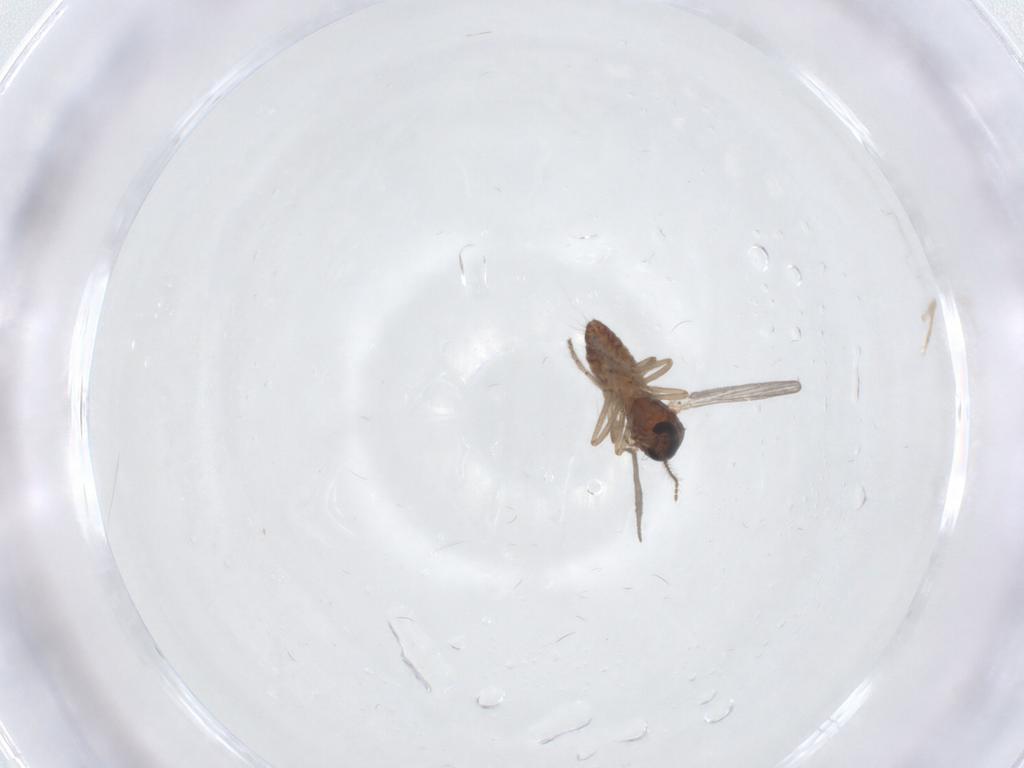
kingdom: Animalia
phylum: Arthropoda
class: Insecta
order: Diptera
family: Ceratopogonidae
